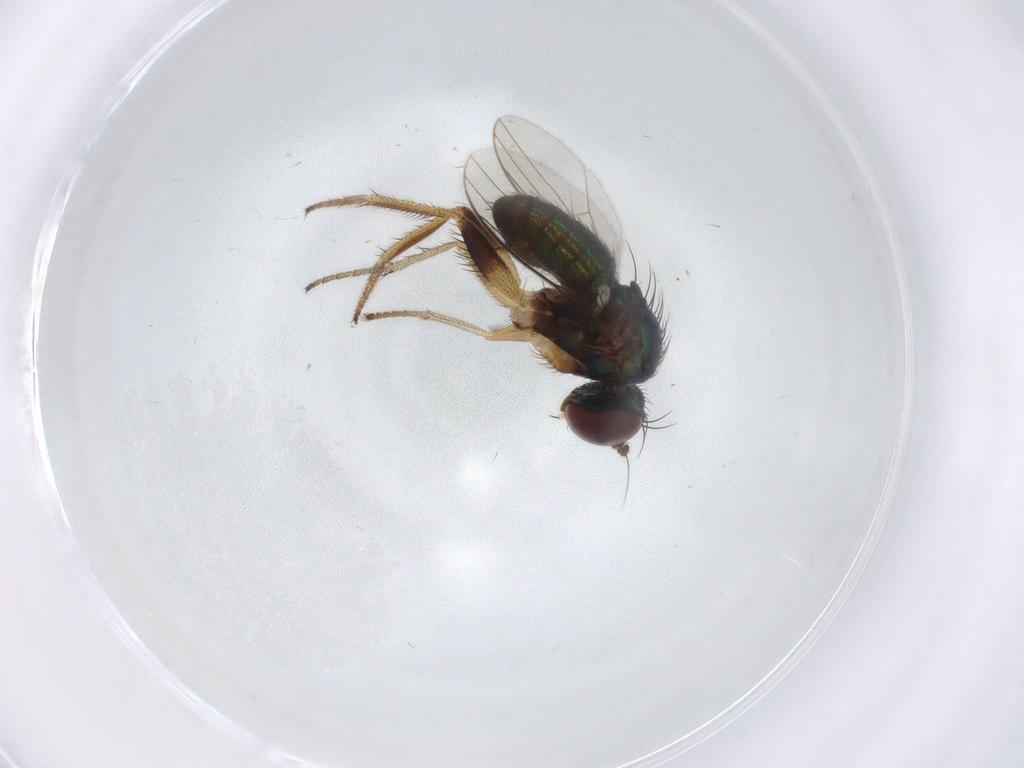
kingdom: Animalia
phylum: Arthropoda
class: Insecta
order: Diptera
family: Dolichopodidae
